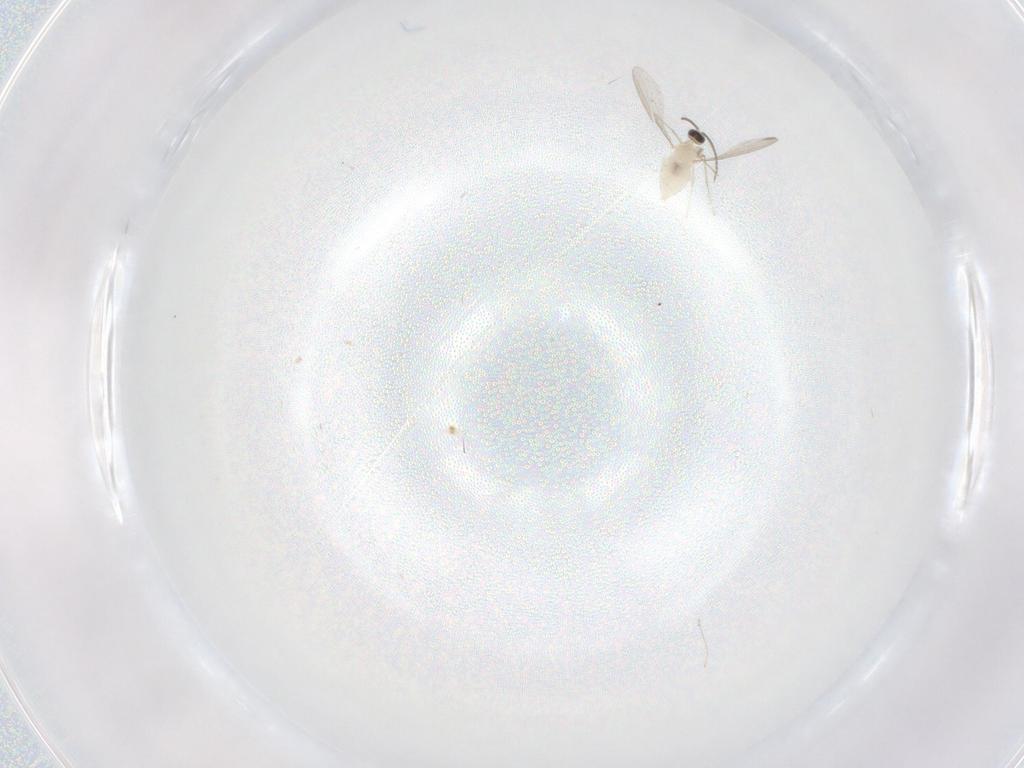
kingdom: Animalia
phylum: Arthropoda
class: Insecta
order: Diptera
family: Cecidomyiidae
